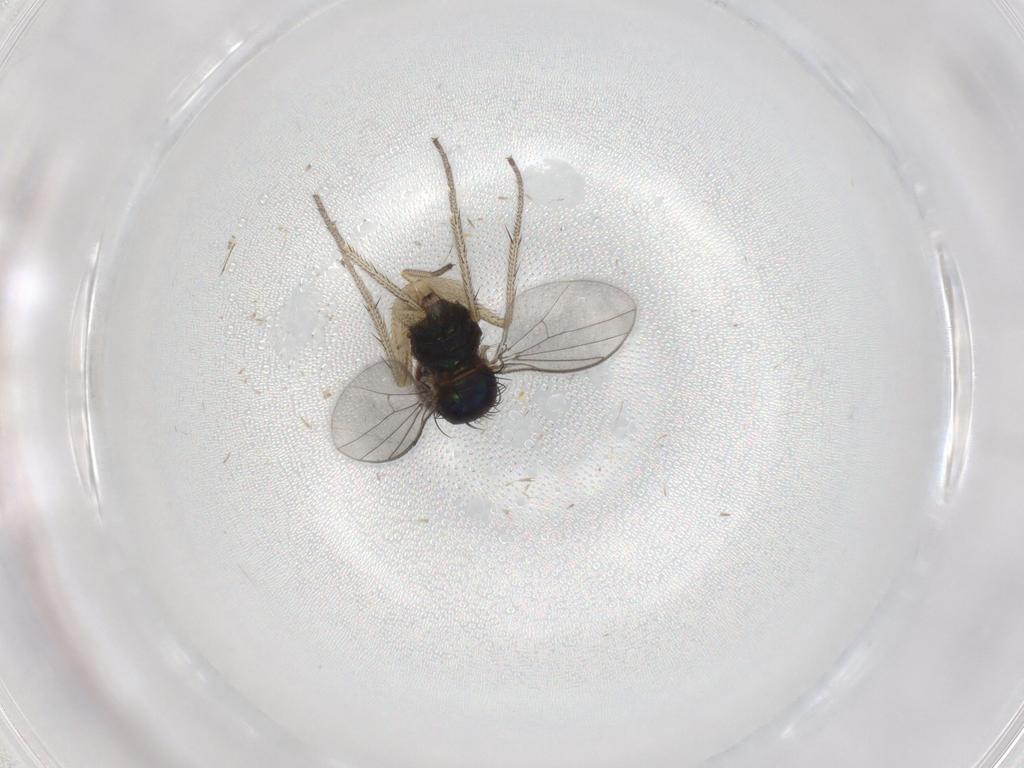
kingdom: Animalia
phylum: Arthropoda
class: Insecta
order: Diptera
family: Dolichopodidae
